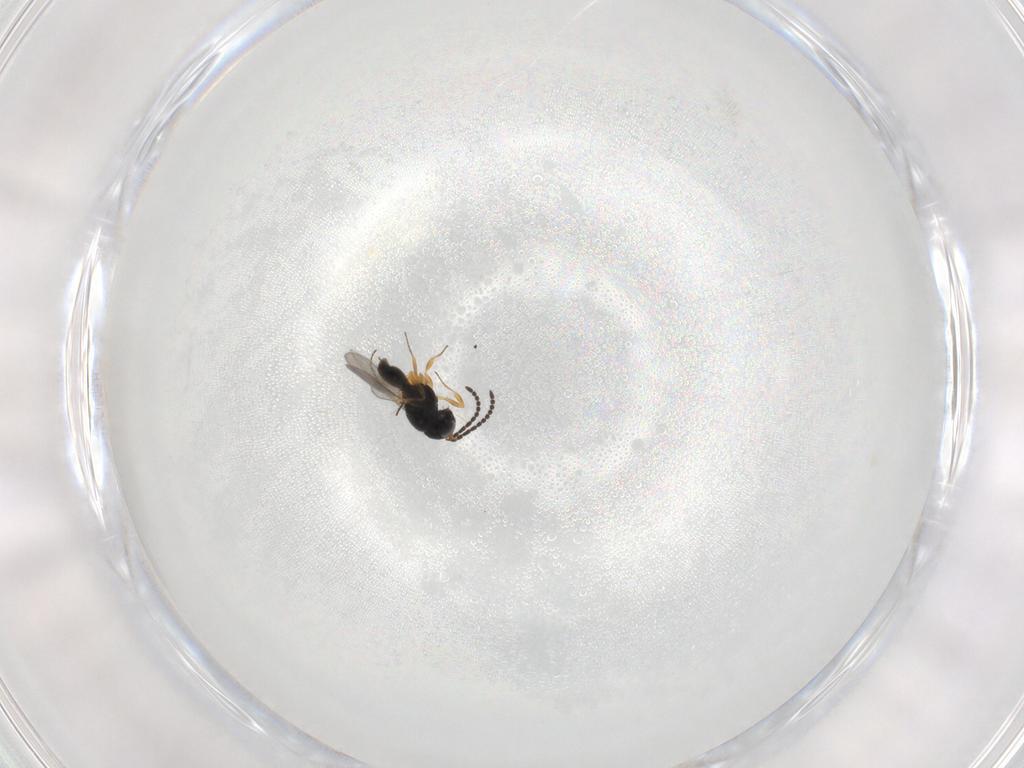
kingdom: Animalia
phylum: Arthropoda
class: Insecta
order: Hymenoptera
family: Scelionidae
